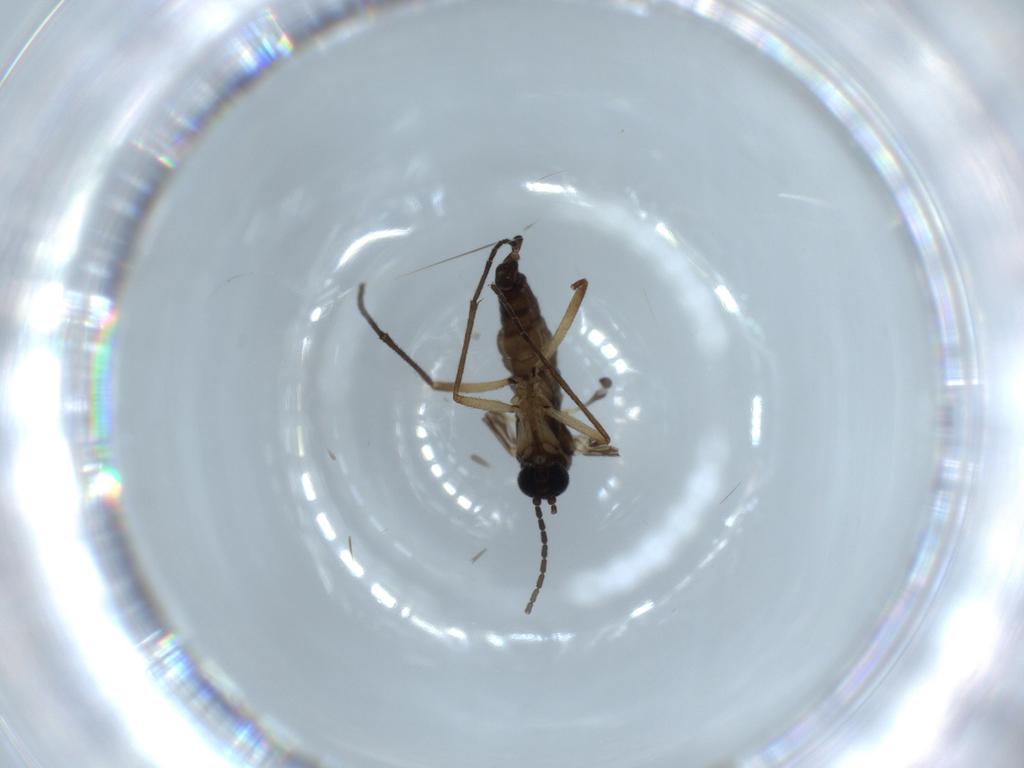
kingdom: Animalia
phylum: Arthropoda
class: Insecta
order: Diptera
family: Sciaridae
